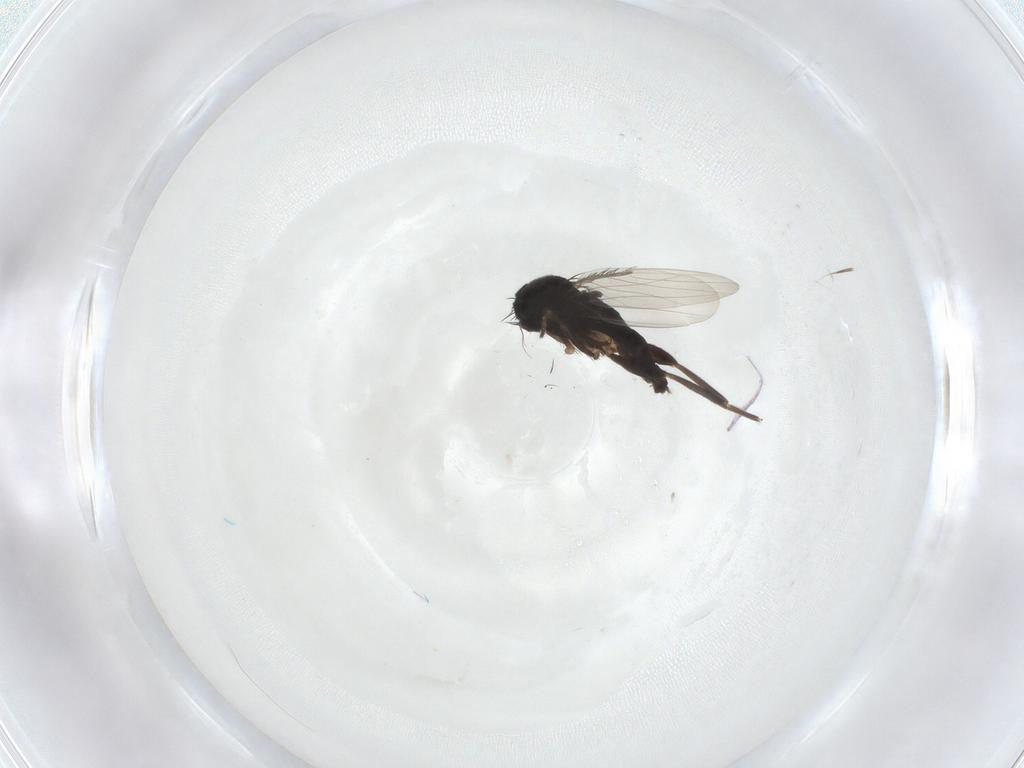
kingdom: Animalia
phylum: Arthropoda
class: Insecta
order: Diptera
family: Phoridae
